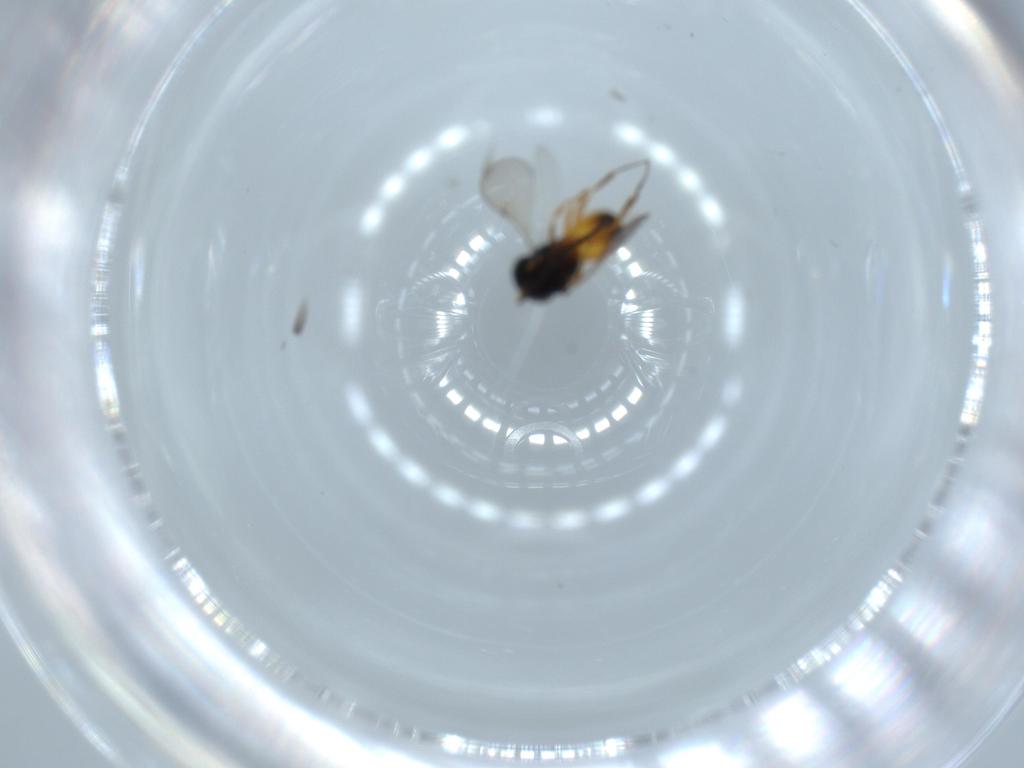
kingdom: Animalia
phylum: Arthropoda
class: Insecta
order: Hymenoptera
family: Scelionidae
